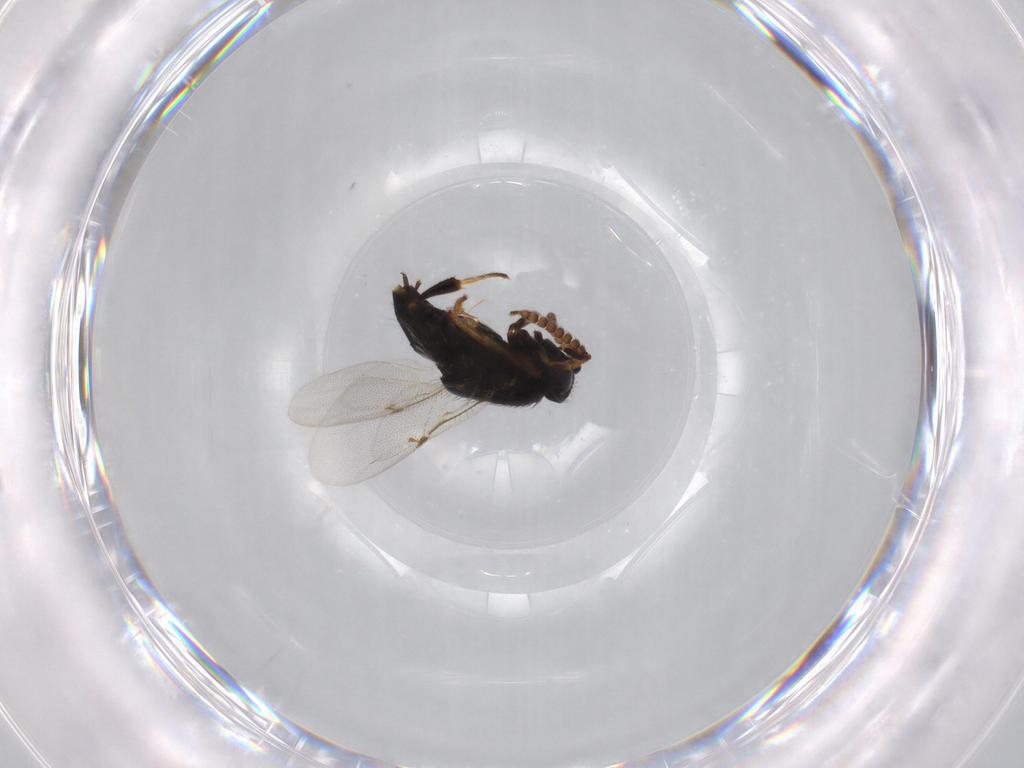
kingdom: Animalia
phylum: Arthropoda
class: Insecta
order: Hymenoptera
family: Encyrtidae
